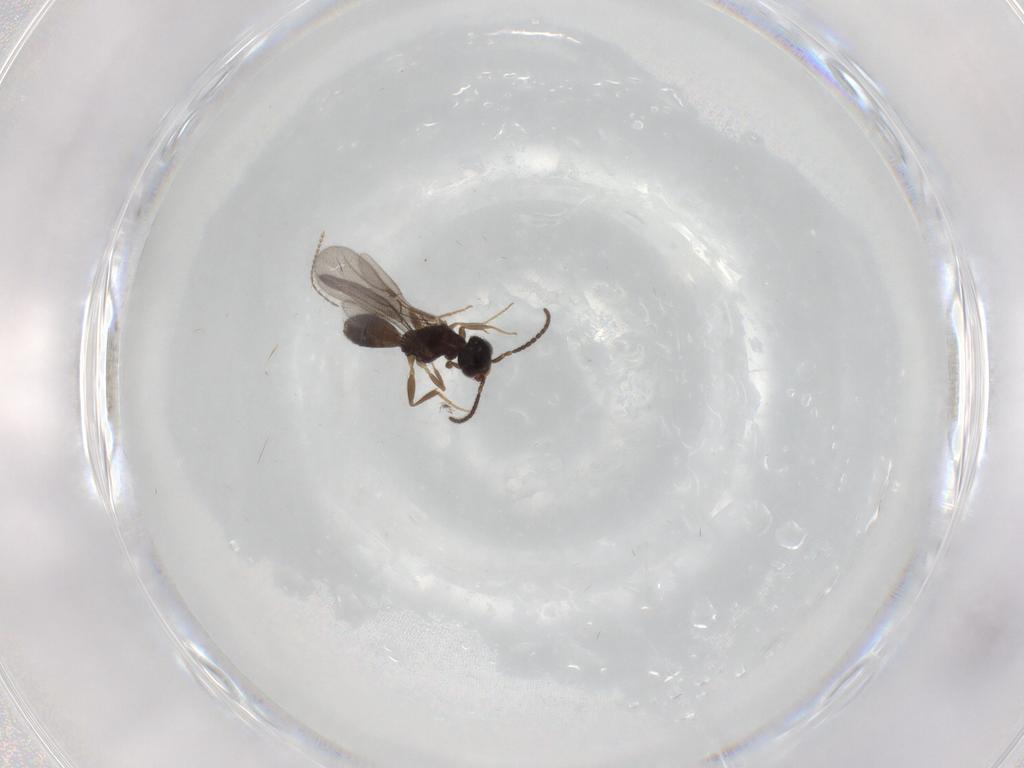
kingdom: Animalia
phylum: Arthropoda
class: Insecta
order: Hymenoptera
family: Bethylidae
